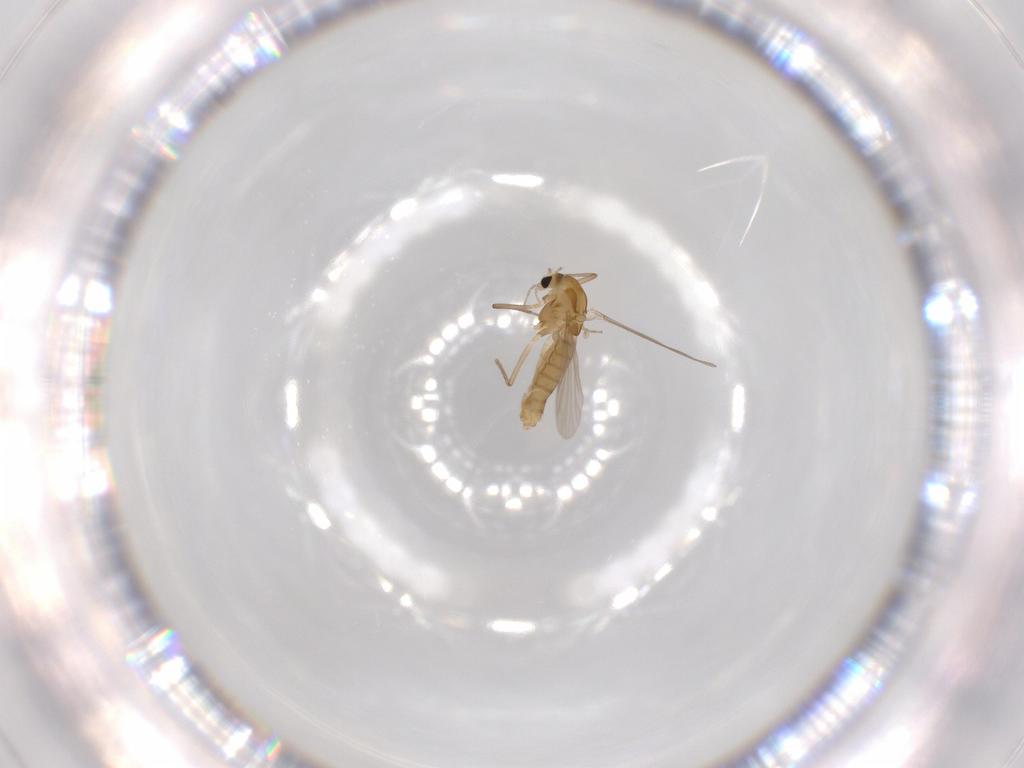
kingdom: Animalia
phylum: Arthropoda
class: Insecta
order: Diptera
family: Chironomidae
